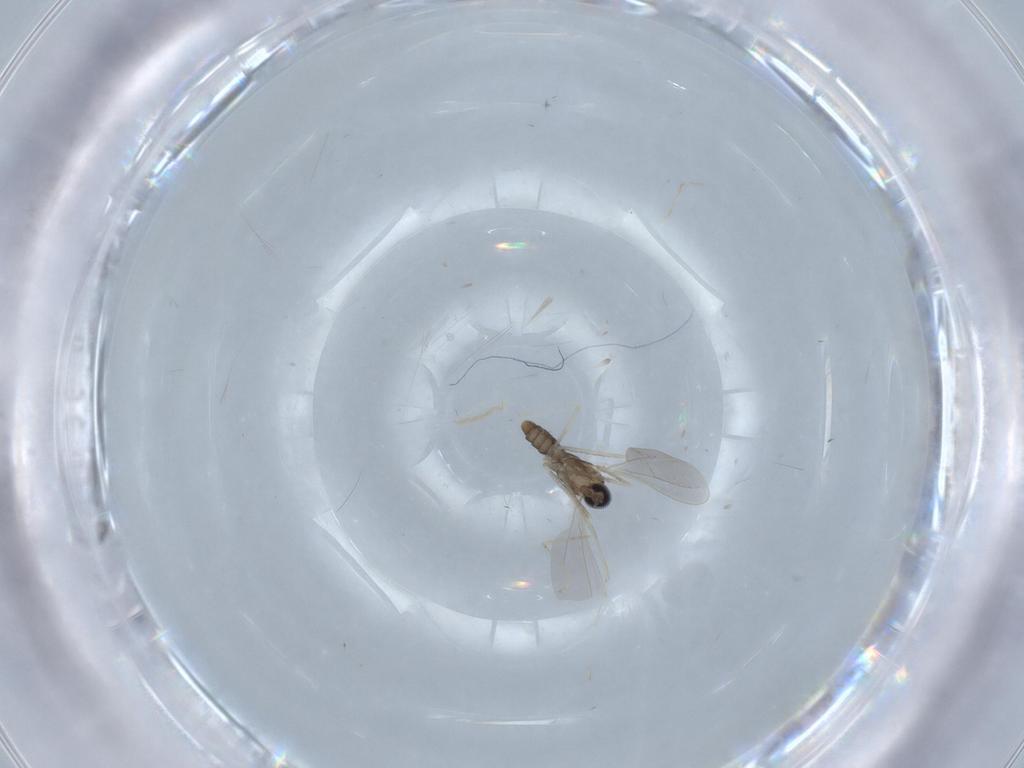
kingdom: Animalia
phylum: Arthropoda
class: Insecta
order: Diptera
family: Cecidomyiidae
